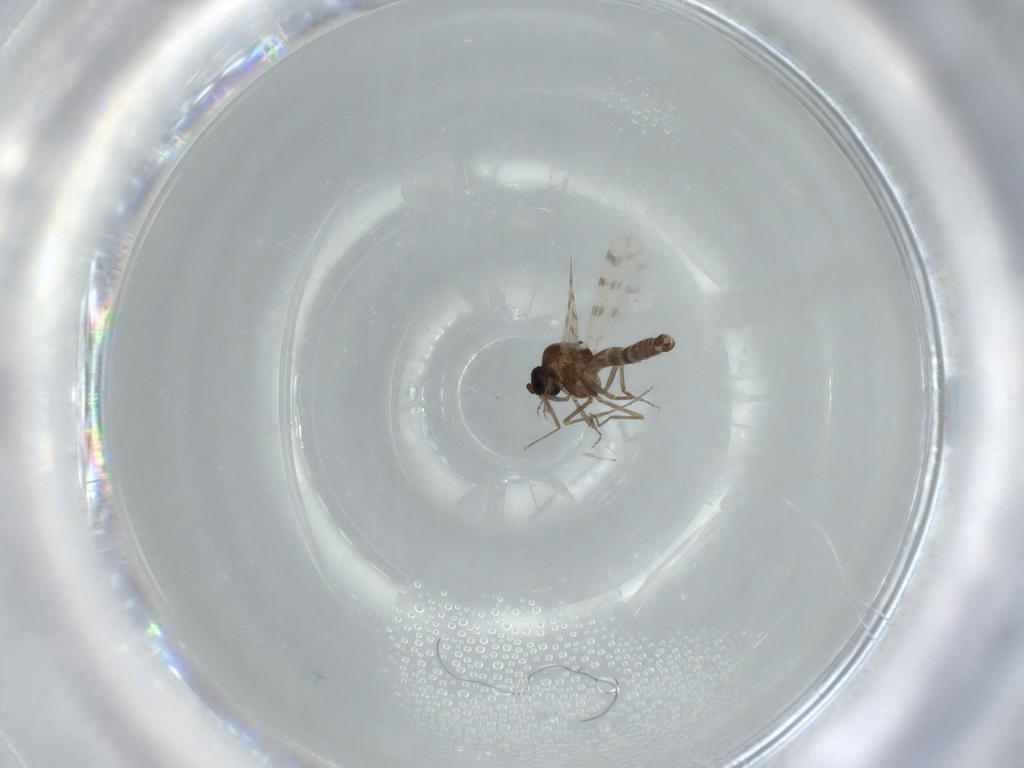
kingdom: Animalia
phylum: Arthropoda
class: Insecta
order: Diptera
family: Ceratopogonidae
